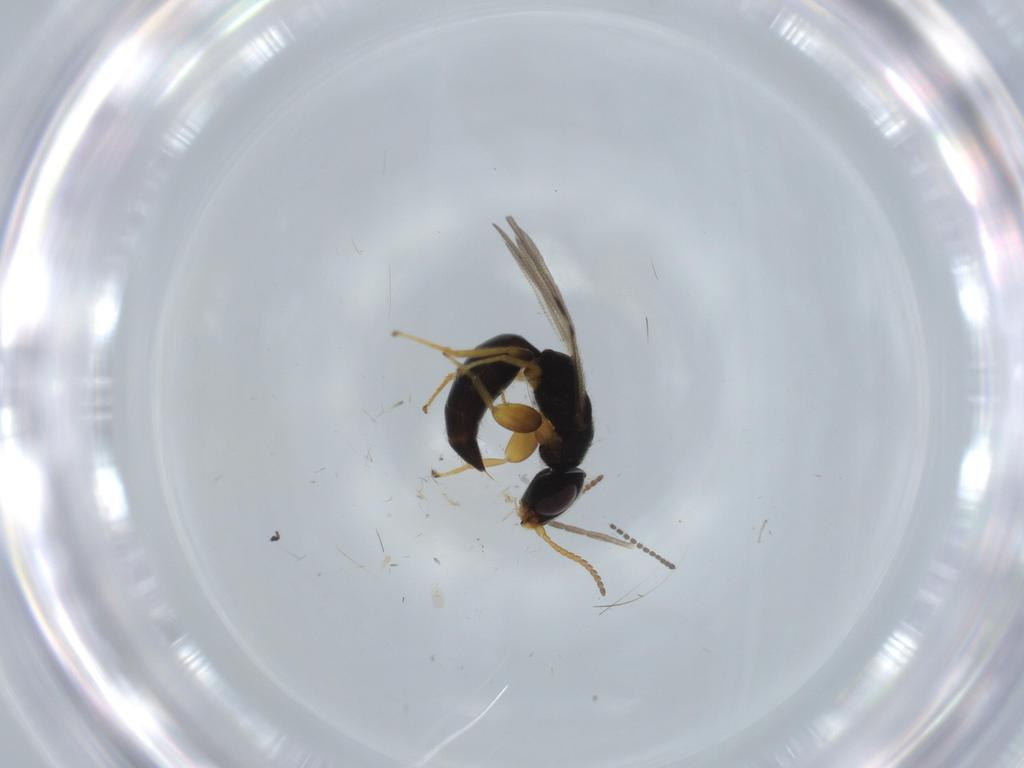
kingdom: Animalia
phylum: Arthropoda
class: Insecta
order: Hymenoptera
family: Bethylidae
